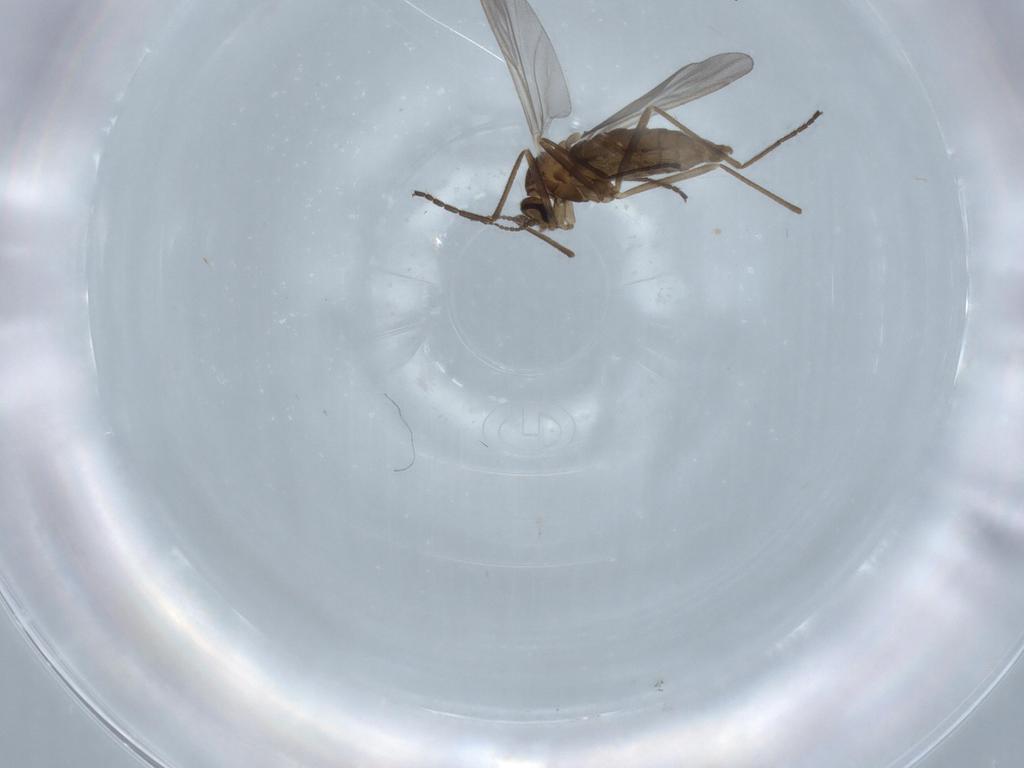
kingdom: Animalia
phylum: Arthropoda
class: Insecta
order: Diptera
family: Cecidomyiidae
